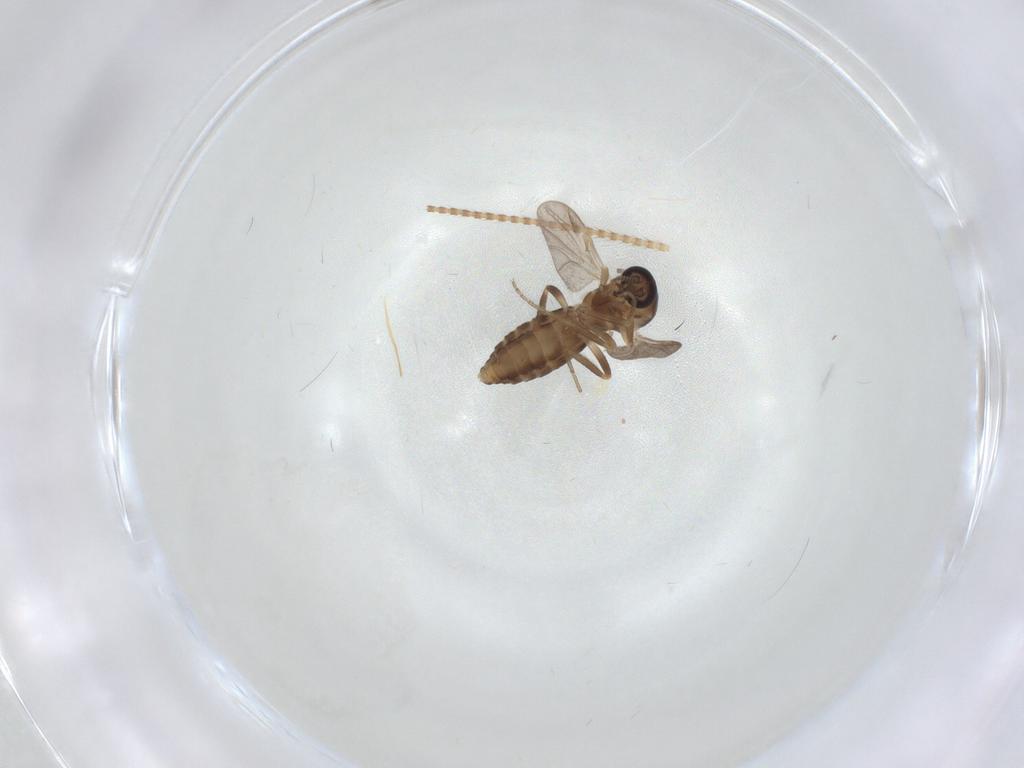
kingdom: Animalia
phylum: Arthropoda
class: Insecta
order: Diptera
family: Ceratopogonidae
